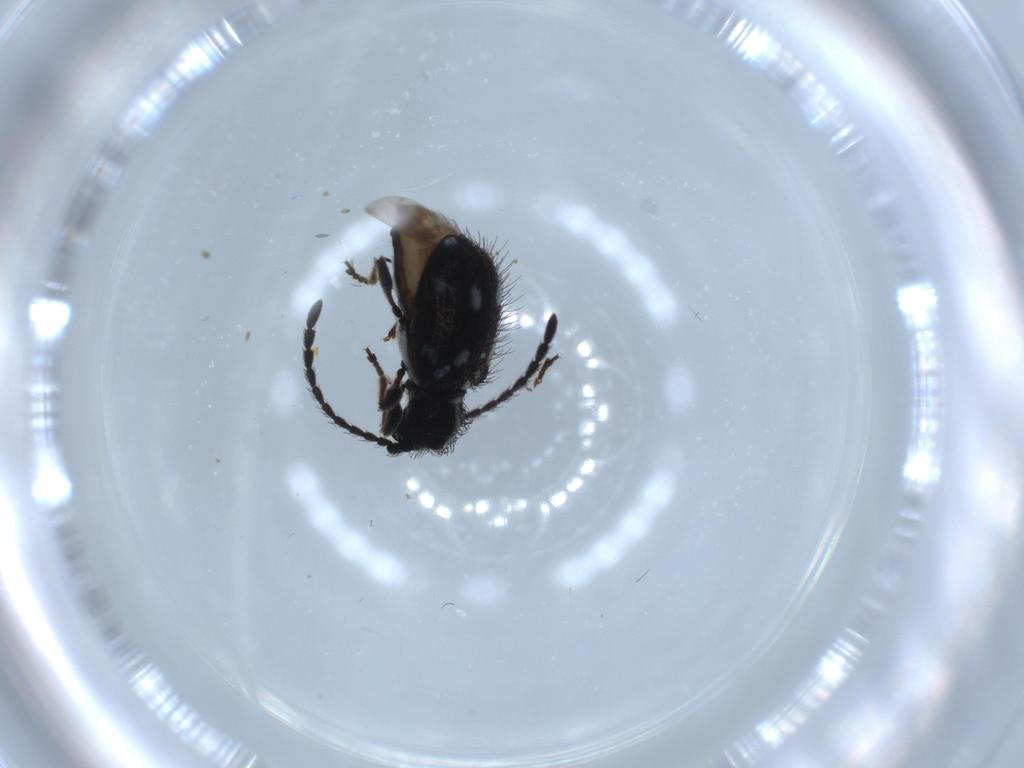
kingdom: Animalia
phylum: Arthropoda
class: Insecta
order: Coleoptera
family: Ptinidae
